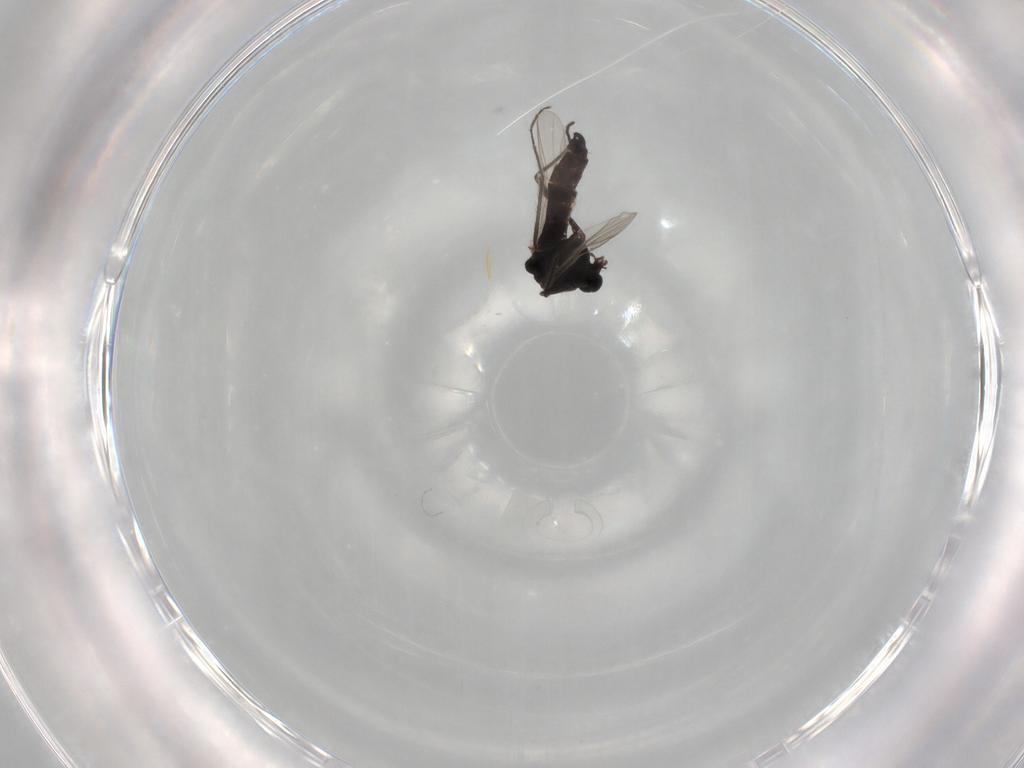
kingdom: Animalia
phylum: Arthropoda
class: Insecta
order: Diptera
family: Chironomidae
